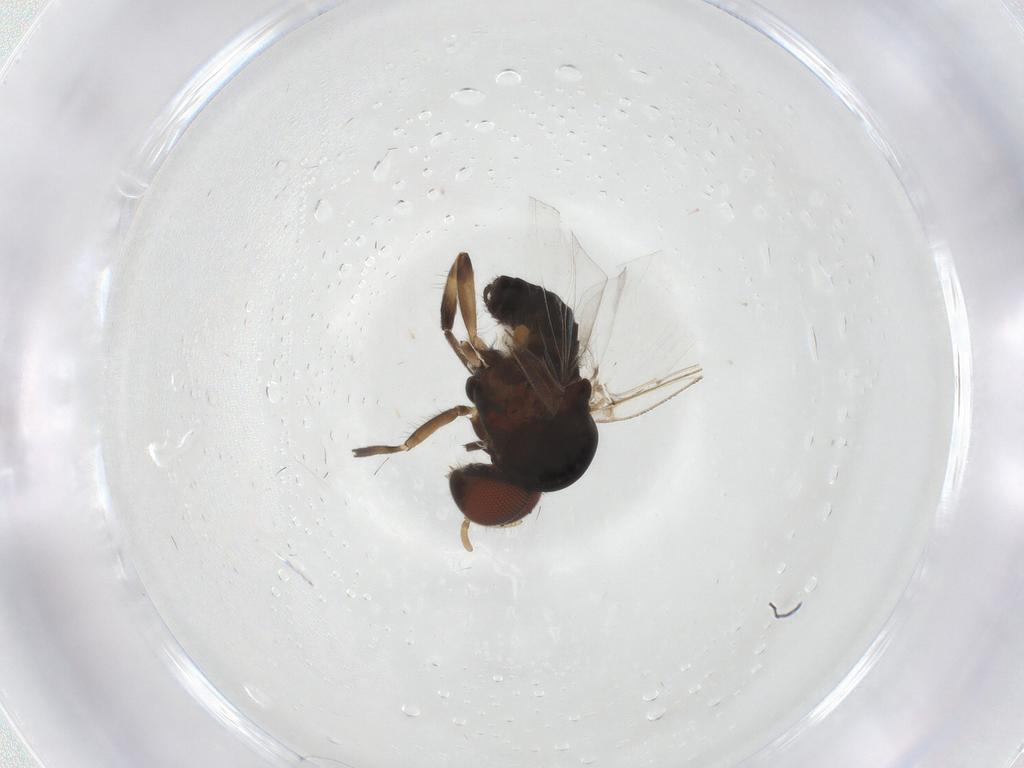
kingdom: Animalia
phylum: Arthropoda
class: Insecta
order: Diptera
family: Simuliidae
